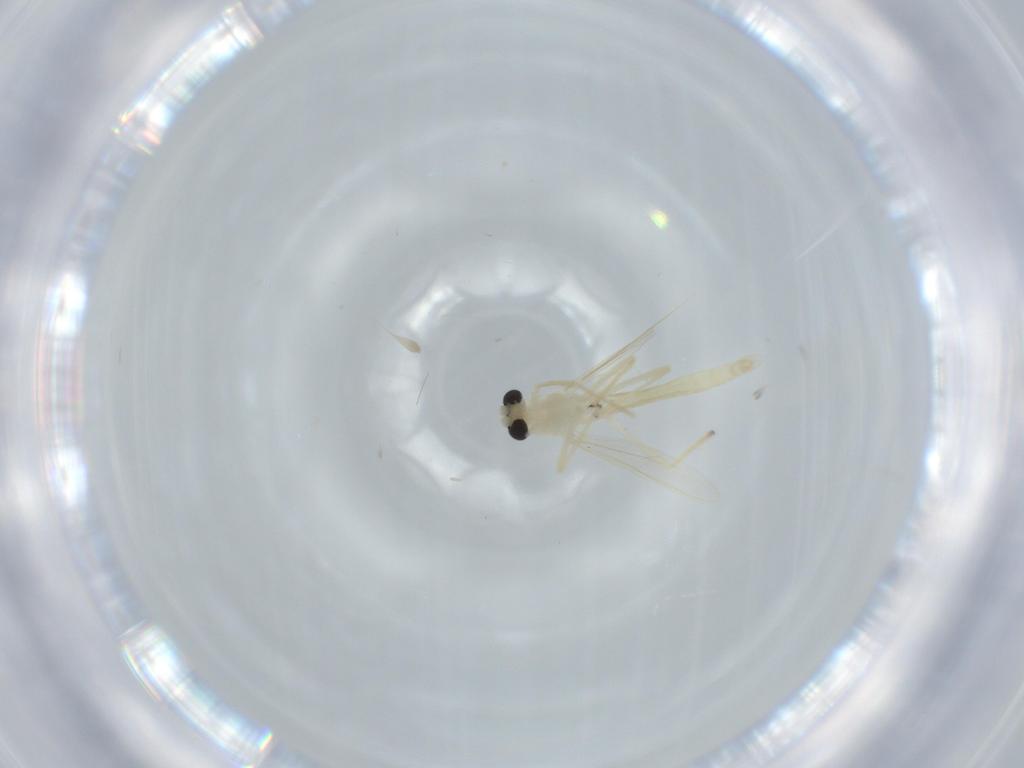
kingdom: Animalia
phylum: Arthropoda
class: Insecta
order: Diptera
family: Chironomidae
